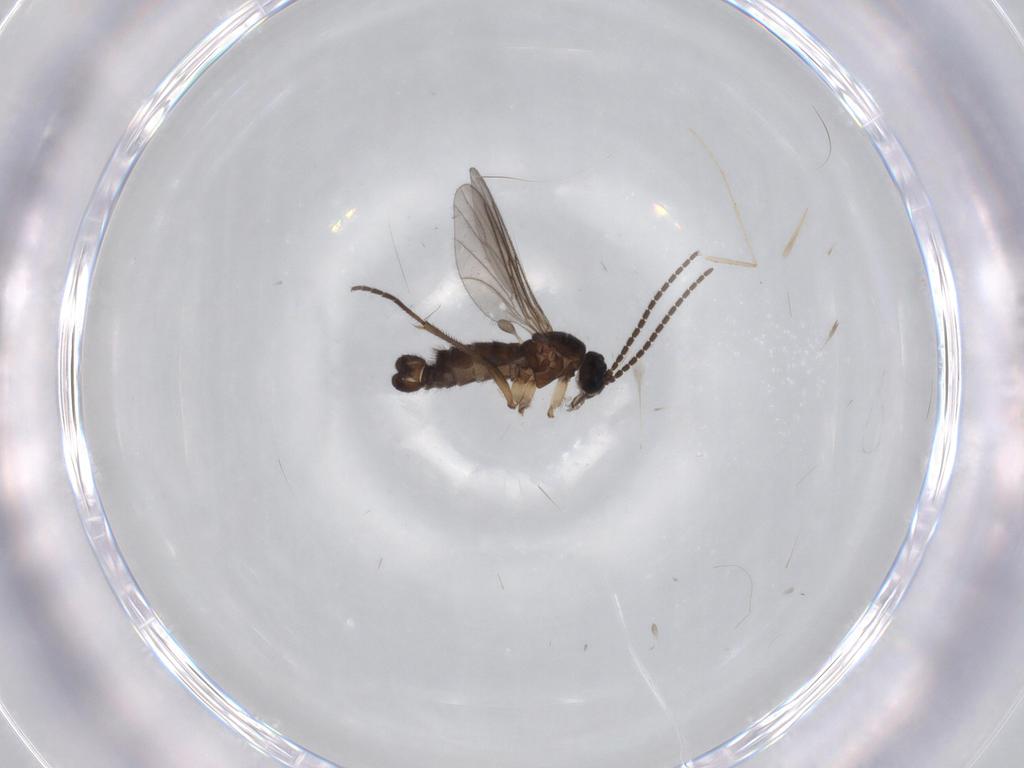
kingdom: Animalia
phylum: Arthropoda
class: Insecta
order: Diptera
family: Sciaridae
